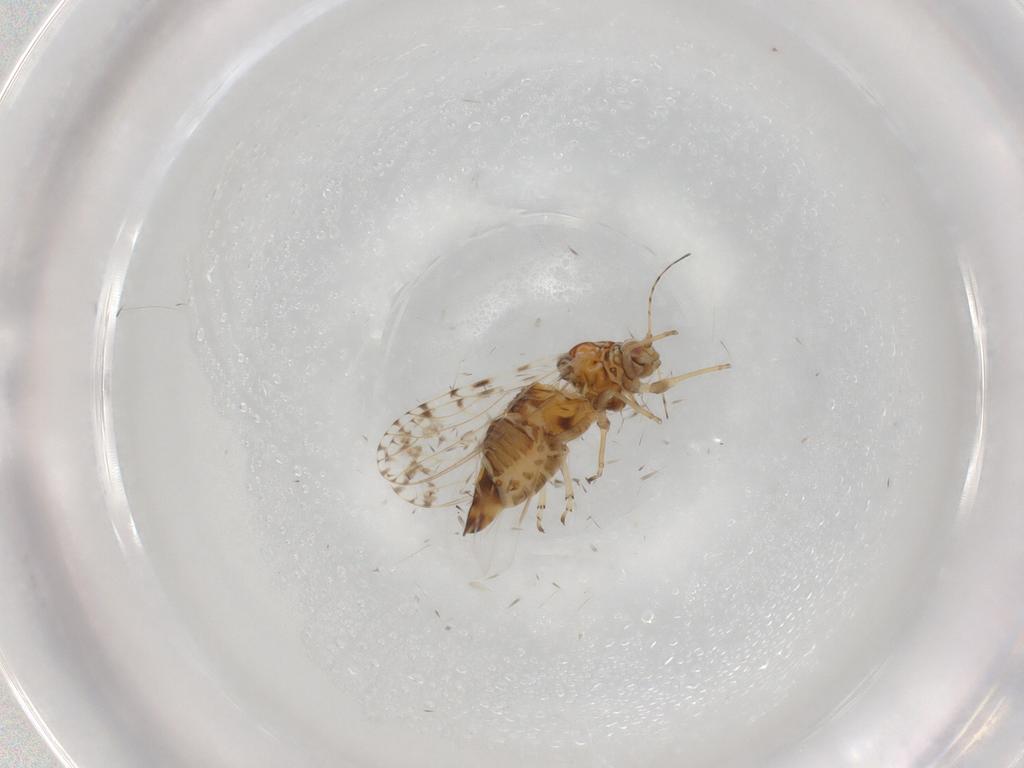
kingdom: Animalia
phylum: Arthropoda
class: Insecta
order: Hemiptera
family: Psyllidae
